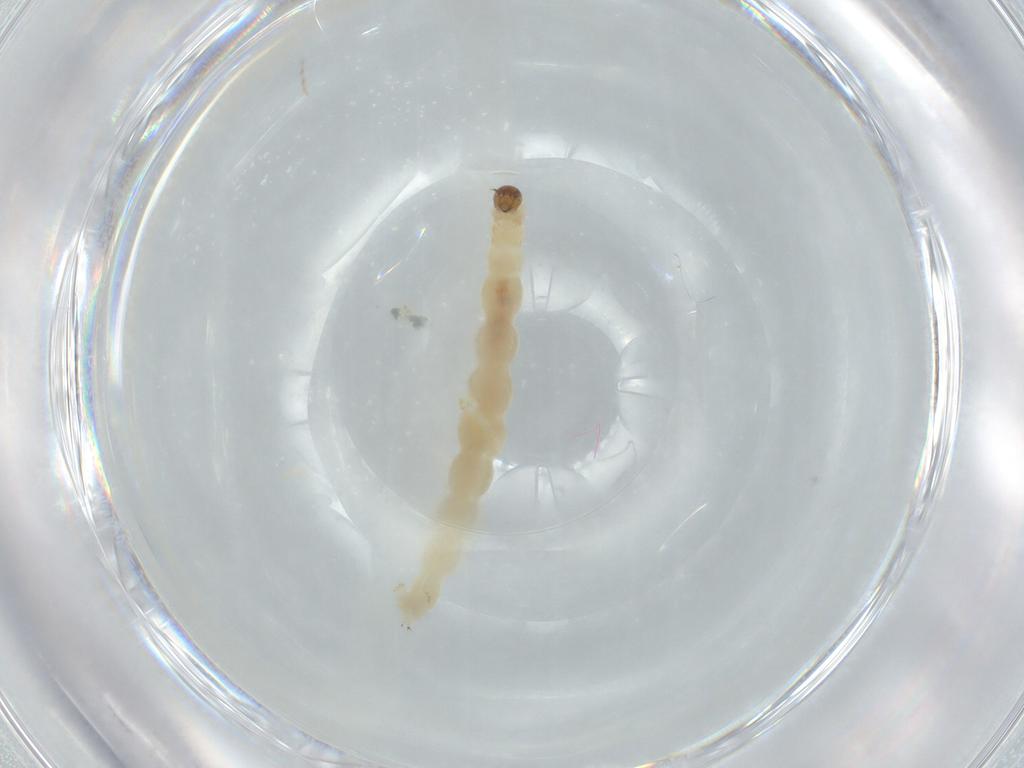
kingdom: Animalia
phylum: Arthropoda
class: Insecta
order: Diptera
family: Chironomidae
